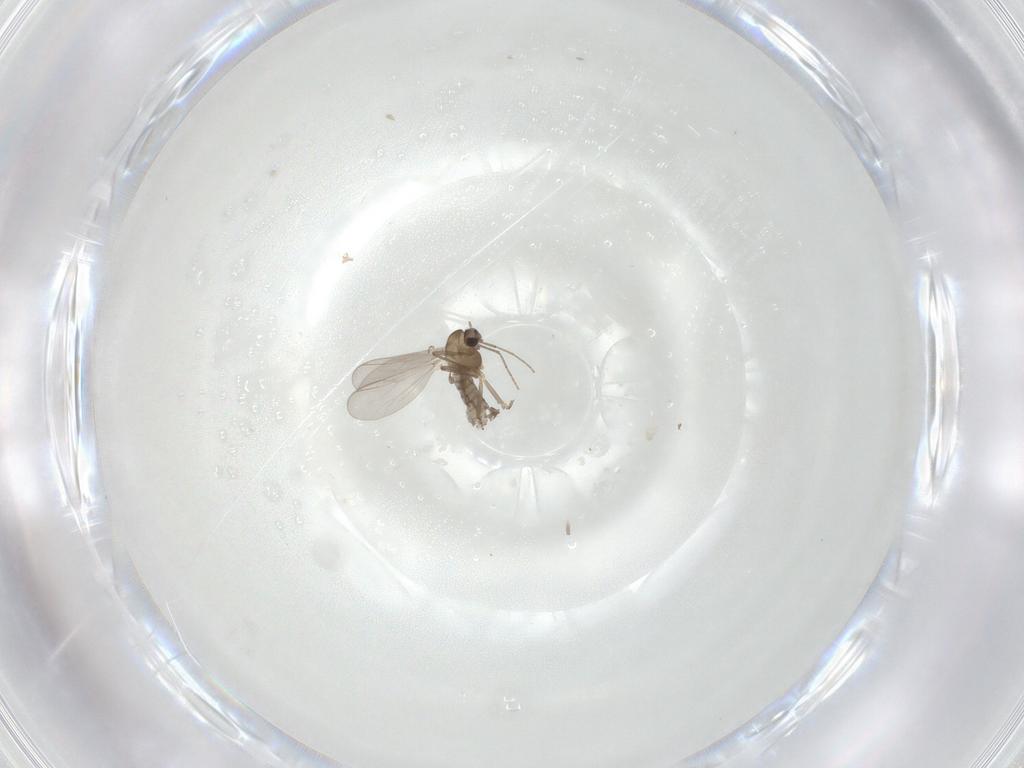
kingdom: Animalia
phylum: Arthropoda
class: Insecta
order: Diptera
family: Chironomidae
